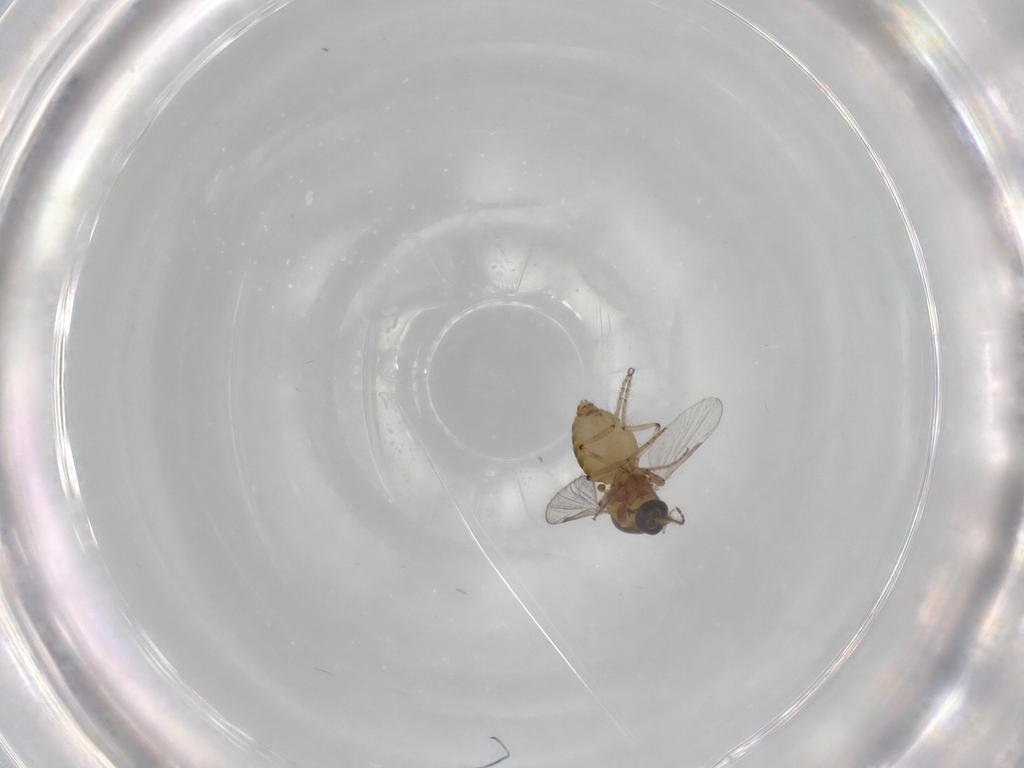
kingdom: Animalia
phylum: Arthropoda
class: Insecta
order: Diptera
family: Ceratopogonidae
